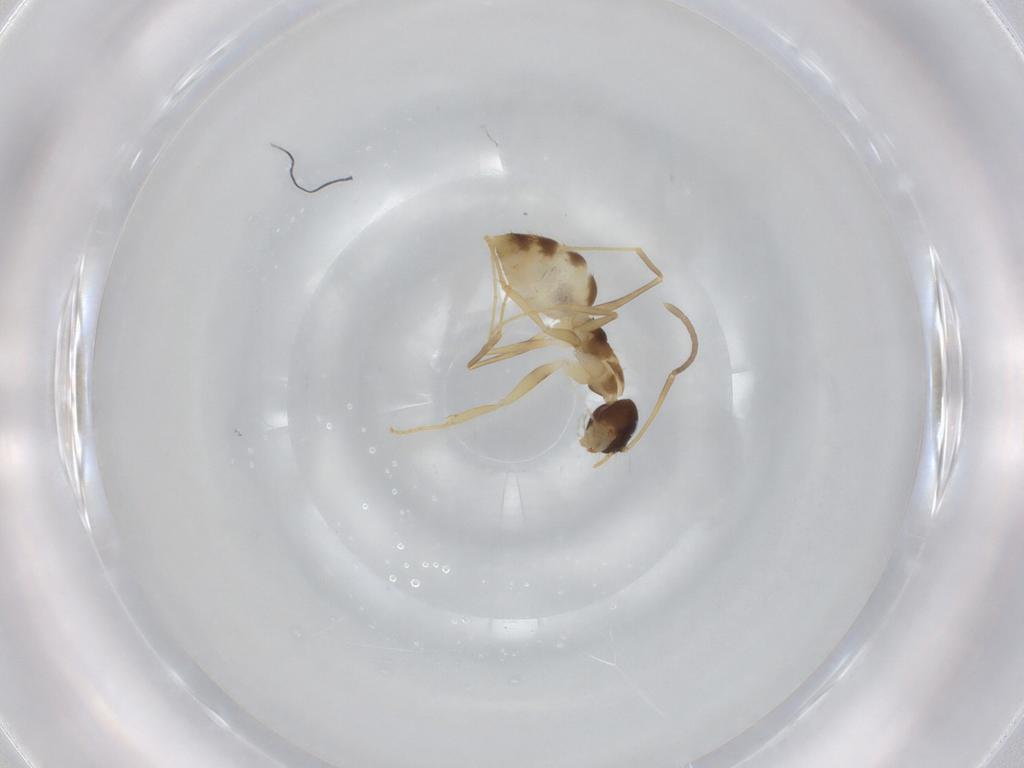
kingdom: Animalia
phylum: Arthropoda
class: Insecta
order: Hymenoptera
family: Formicidae
